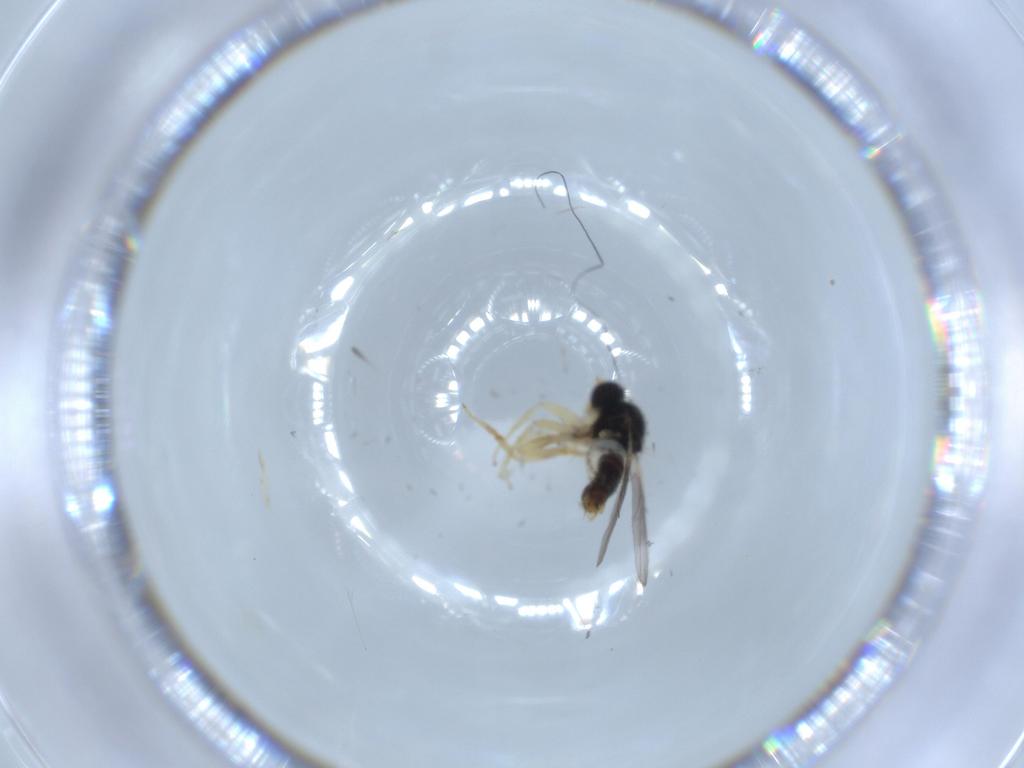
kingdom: Animalia
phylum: Arthropoda
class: Insecta
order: Diptera
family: Hybotidae
